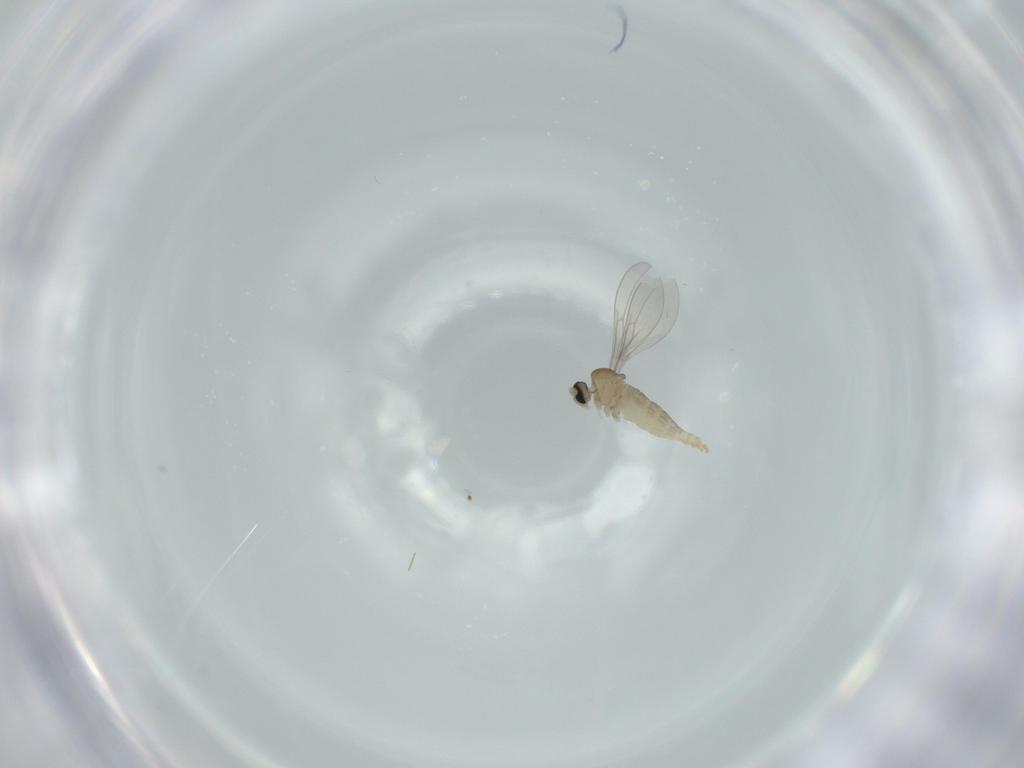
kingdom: Animalia
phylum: Arthropoda
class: Insecta
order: Diptera
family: Cecidomyiidae
